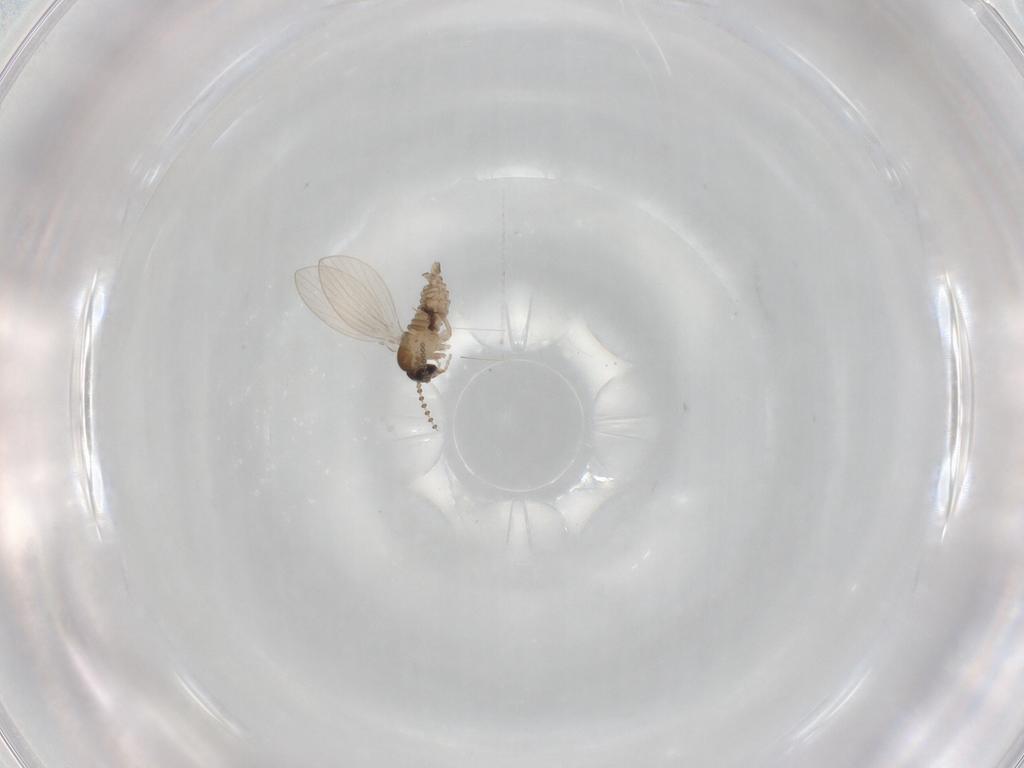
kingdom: Animalia
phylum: Arthropoda
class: Insecta
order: Diptera
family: Psychodidae
